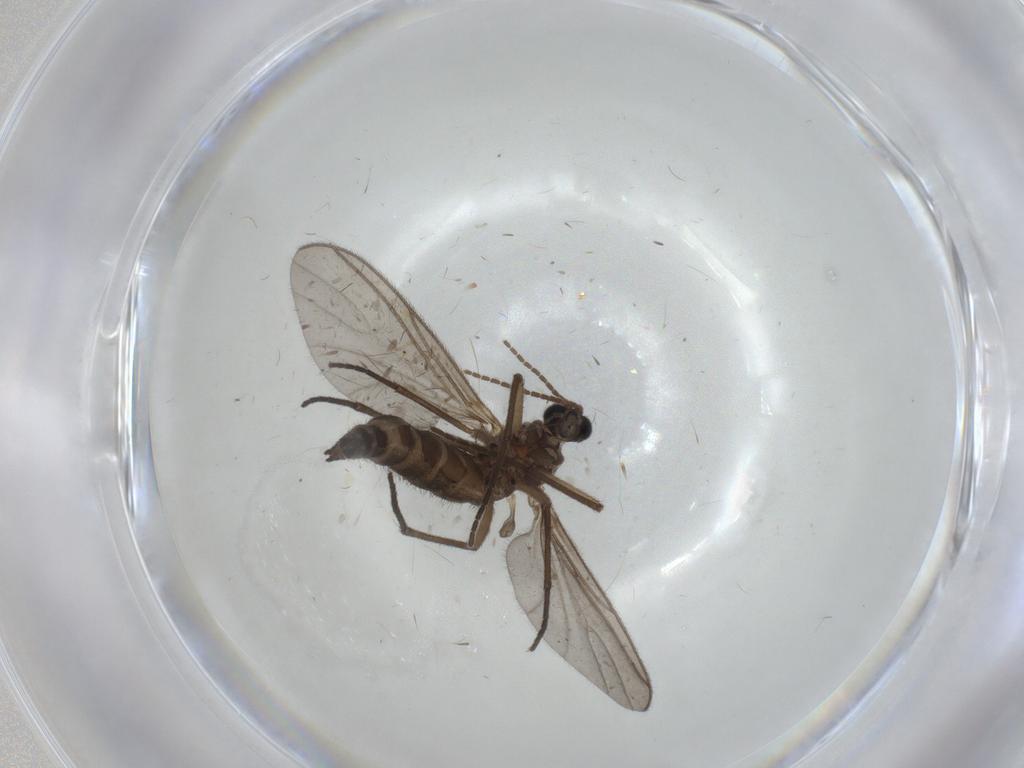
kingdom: Animalia
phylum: Arthropoda
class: Insecta
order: Diptera
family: Sciaridae
